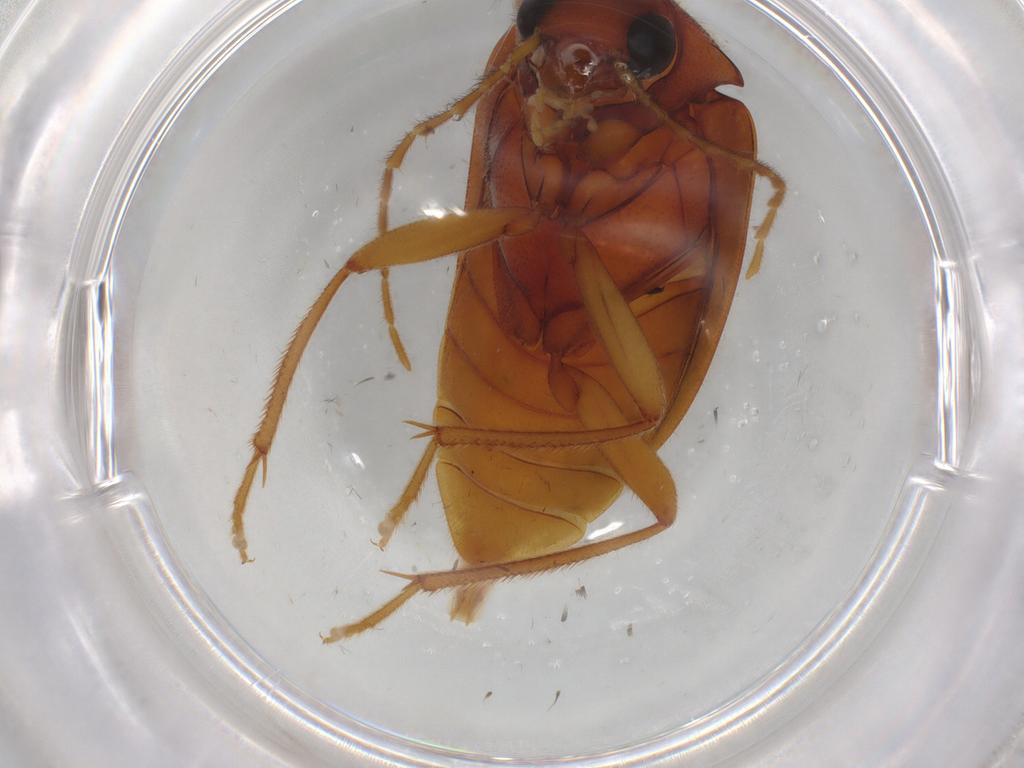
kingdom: Animalia
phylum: Arthropoda
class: Insecta
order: Coleoptera
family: Ptilodactylidae
